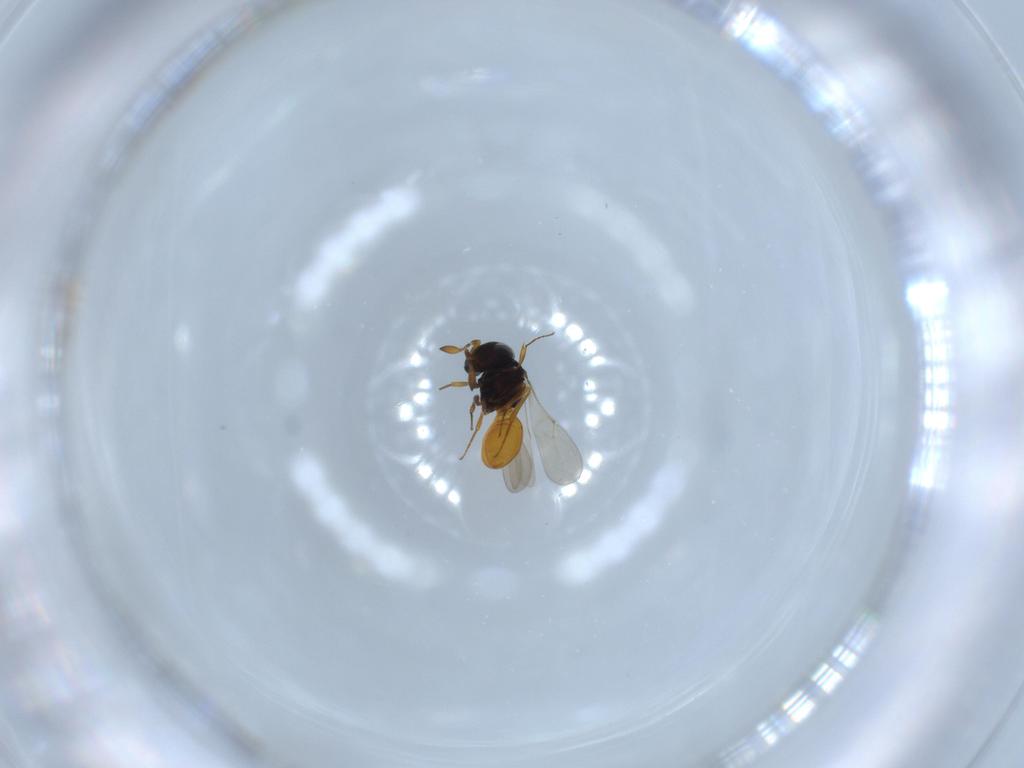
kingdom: Animalia
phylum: Arthropoda
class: Insecta
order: Hymenoptera
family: Scelionidae
